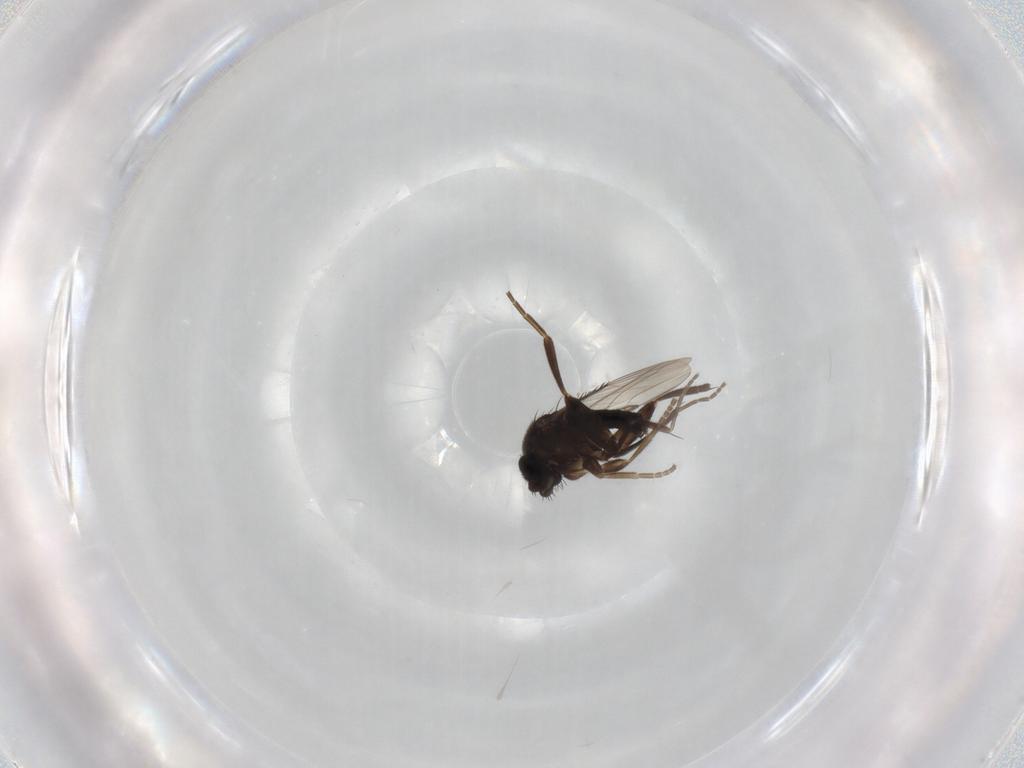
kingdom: Animalia
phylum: Arthropoda
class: Insecta
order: Diptera
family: Phoridae
